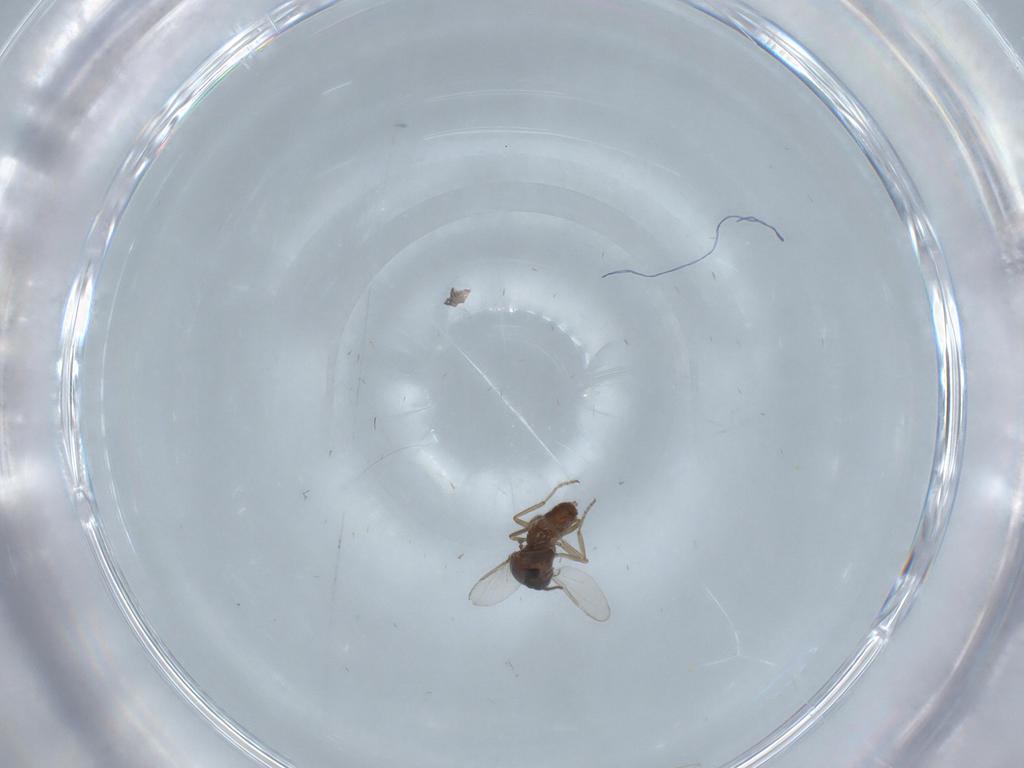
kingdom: Animalia
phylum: Arthropoda
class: Insecta
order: Diptera
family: Ceratopogonidae
